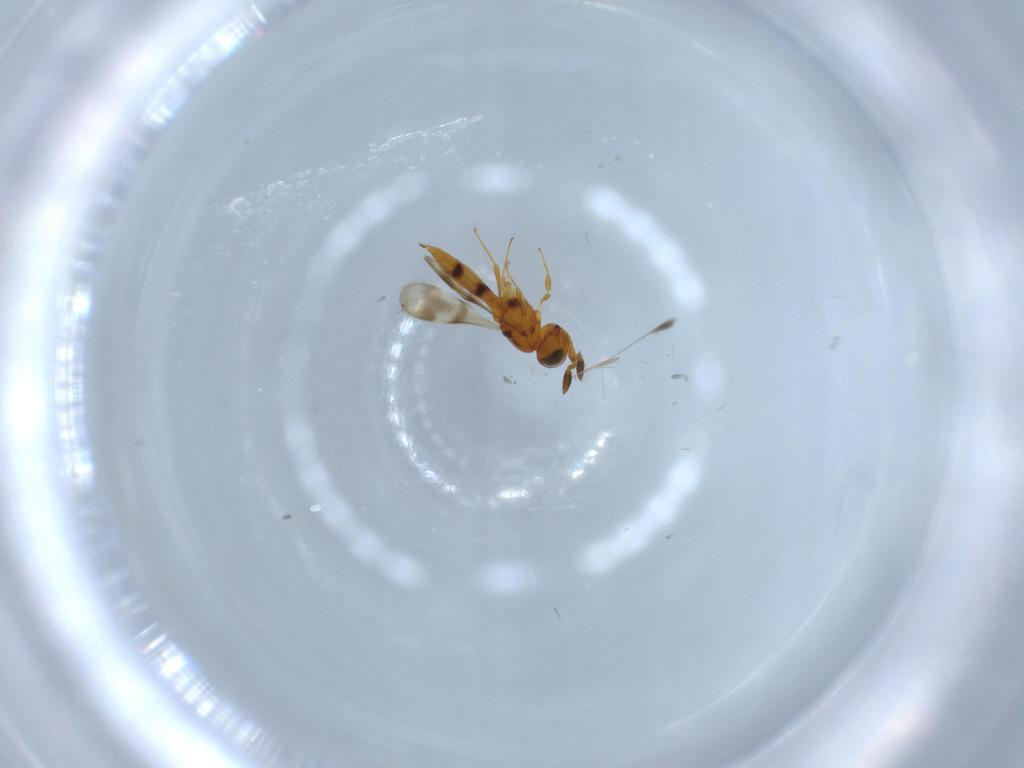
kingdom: Animalia
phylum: Arthropoda
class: Insecta
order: Hymenoptera
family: Scelionidae
